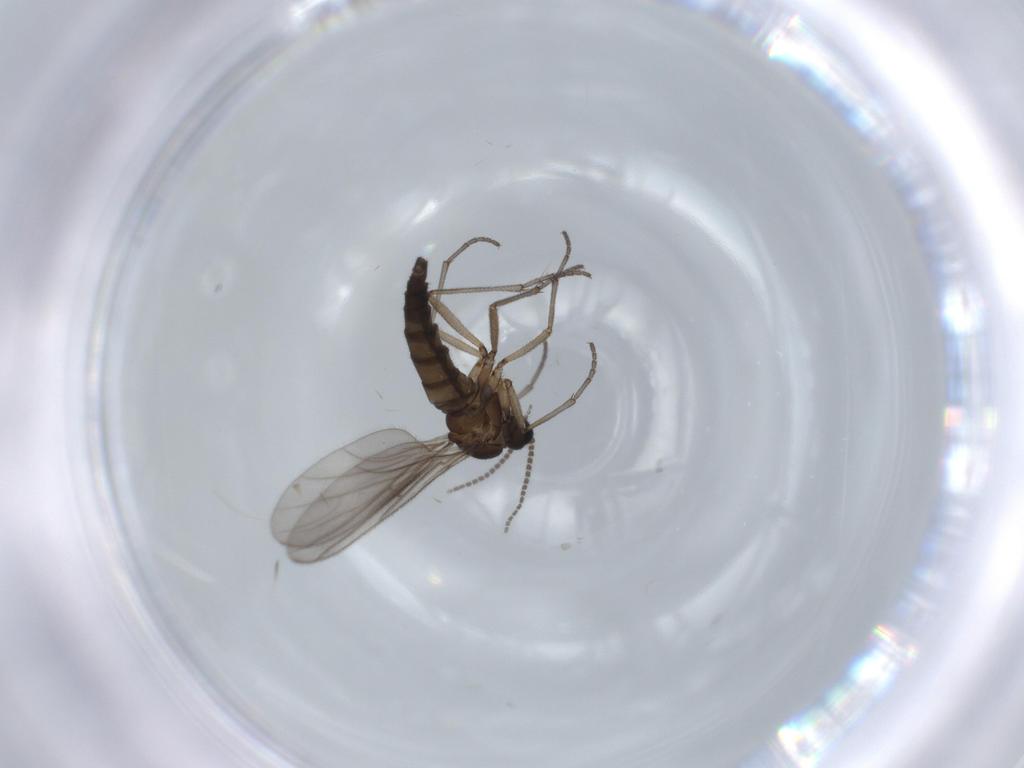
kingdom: Animalia
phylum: Arthropoda
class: Insecta
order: Diptera
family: Sciaridae
